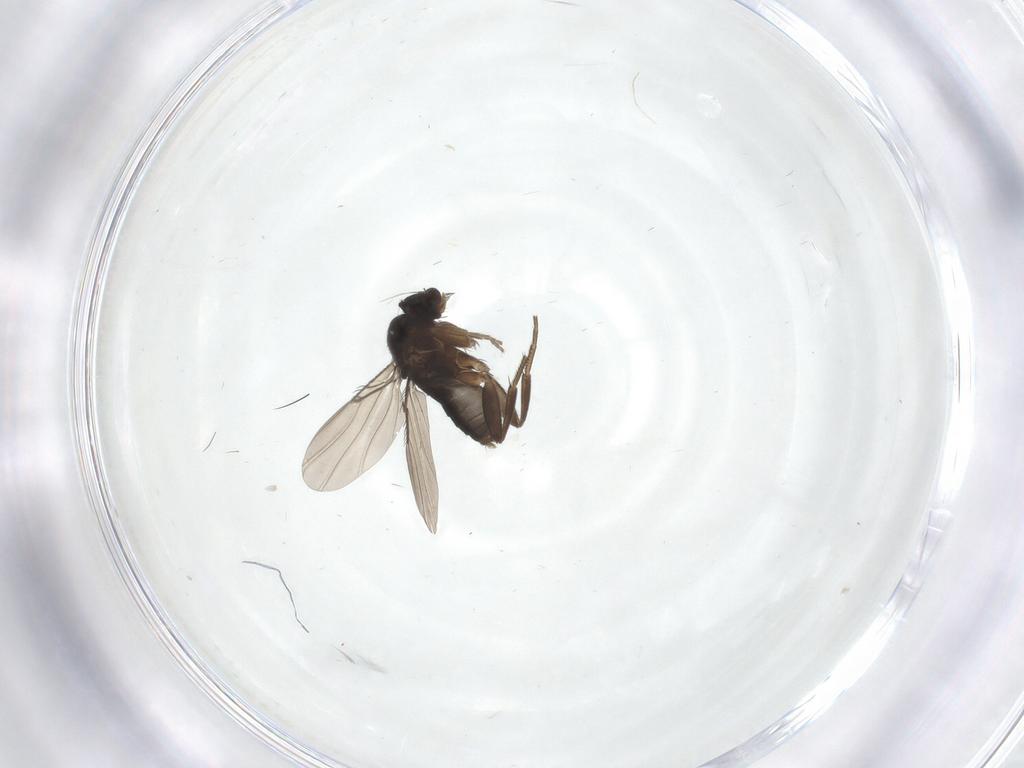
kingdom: Animalia
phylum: Arthropoda
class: Insecta
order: Diptera
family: Phoridae
